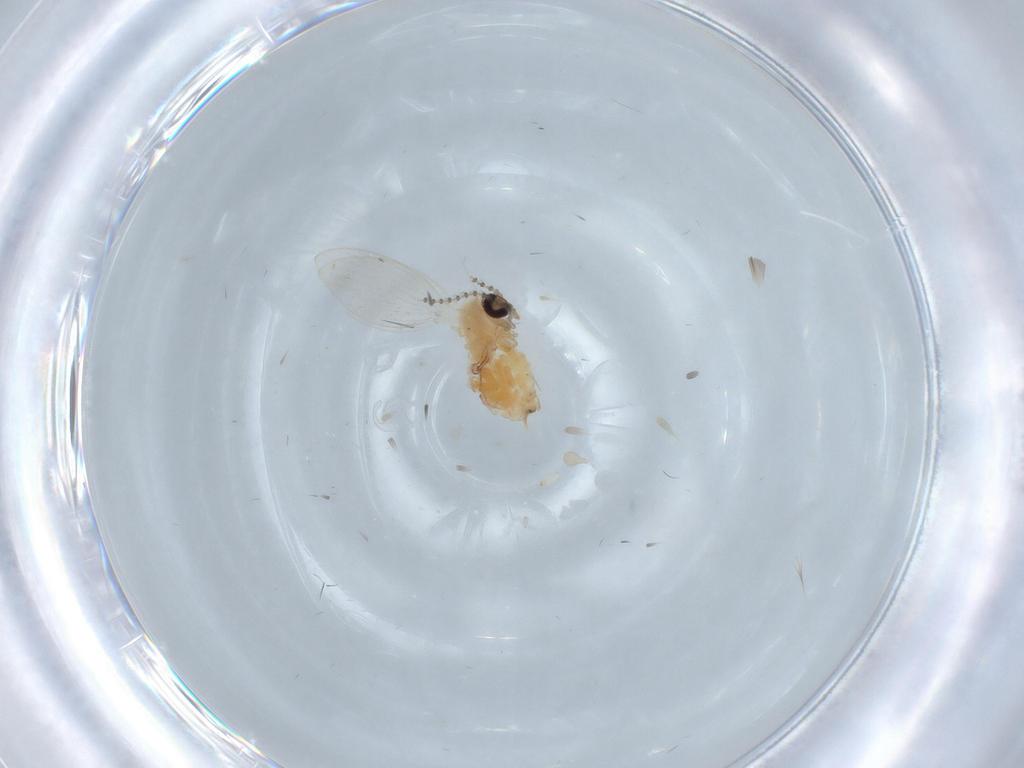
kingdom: Animalia
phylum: Arthropoda
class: Insecta
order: Diptera
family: Psychodidae
